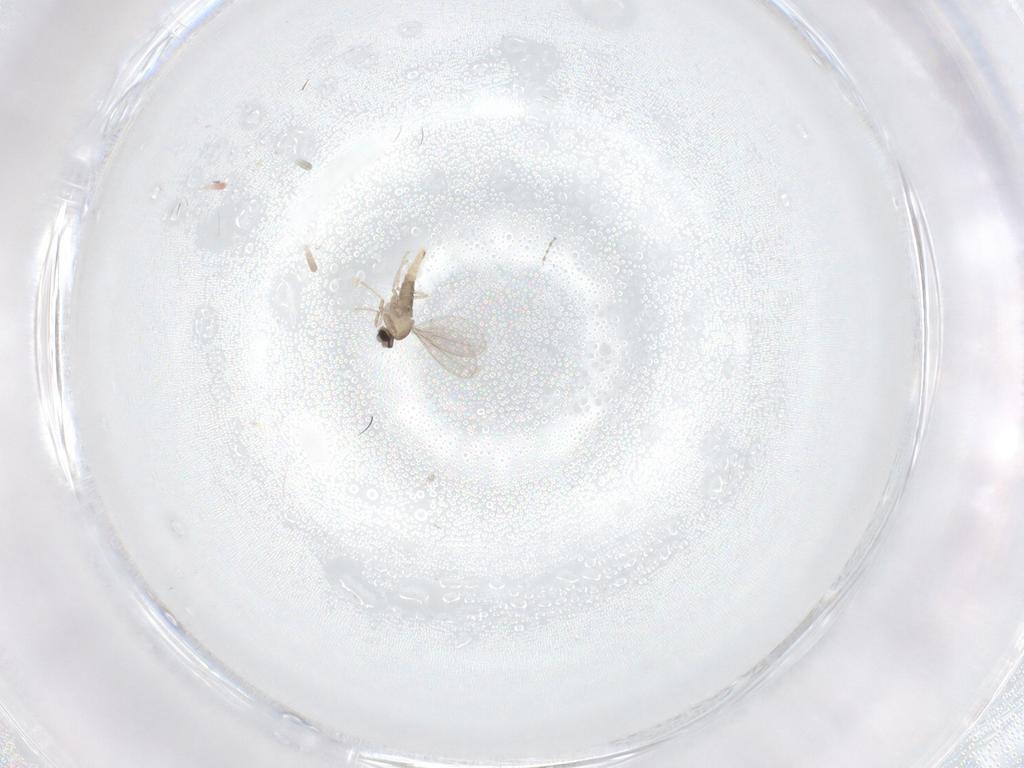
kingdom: Animalia
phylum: Arthropoda
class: Insecta
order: Diptera
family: Cecidomyiidae
